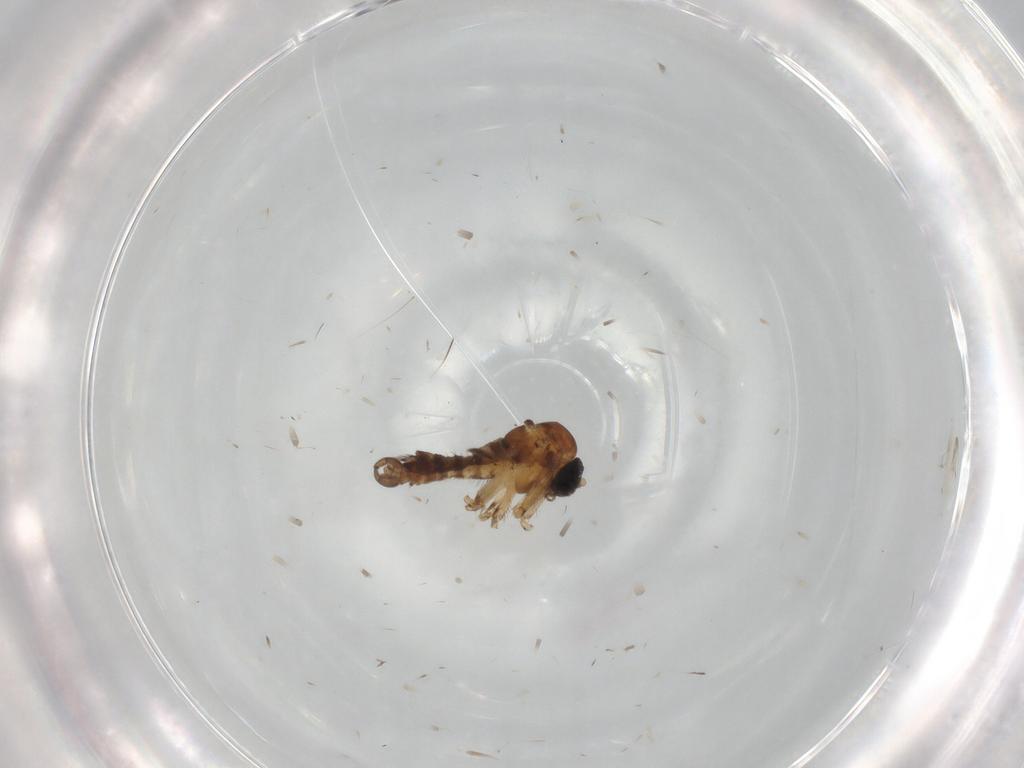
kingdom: Animalia
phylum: Arthropoda
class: Insecta
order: Diptera
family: Sciaridae
